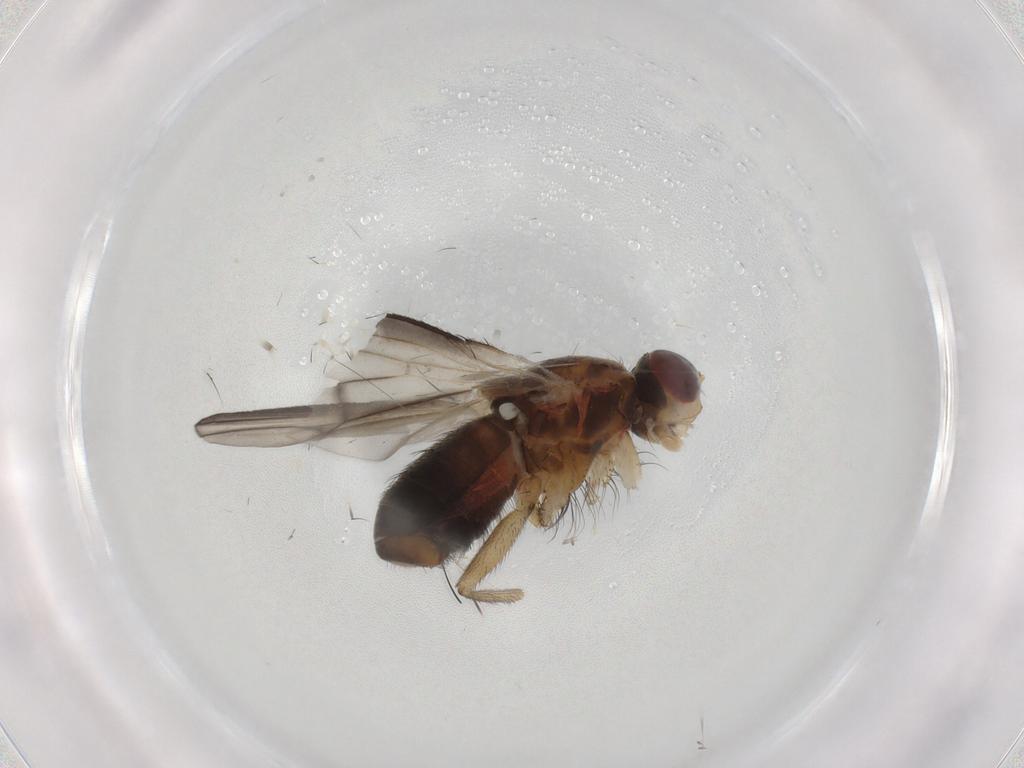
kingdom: Animalia
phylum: Arthropoda
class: Insecta
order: Diptera
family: Heleomyzidae
